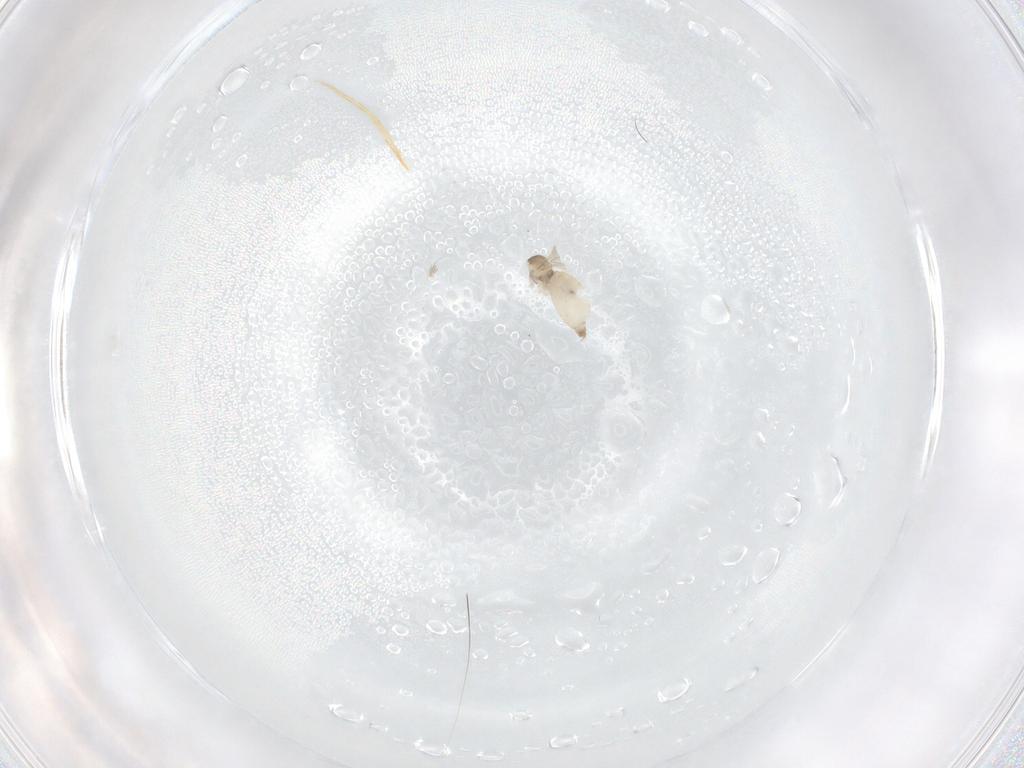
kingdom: Animalia
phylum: Arthropoda
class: Insecta
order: Diptera
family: Cecidomyiidae
